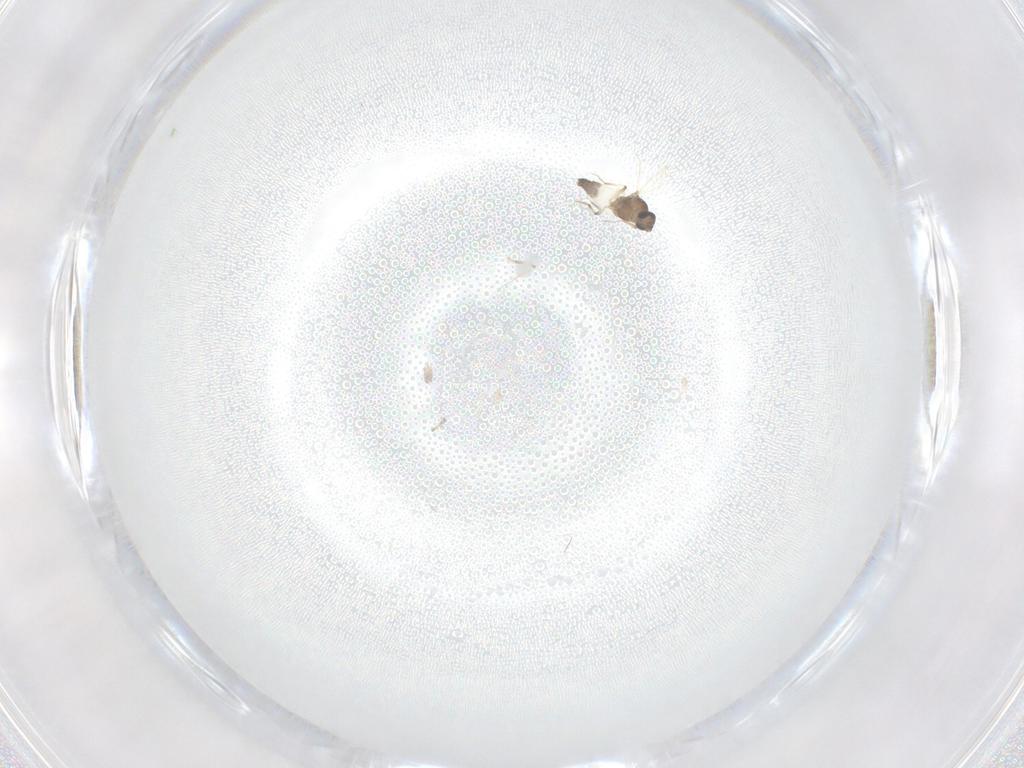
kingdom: Animalia
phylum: Arthropoda
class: Insecta
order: Diptera
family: Ceratopogonidae
